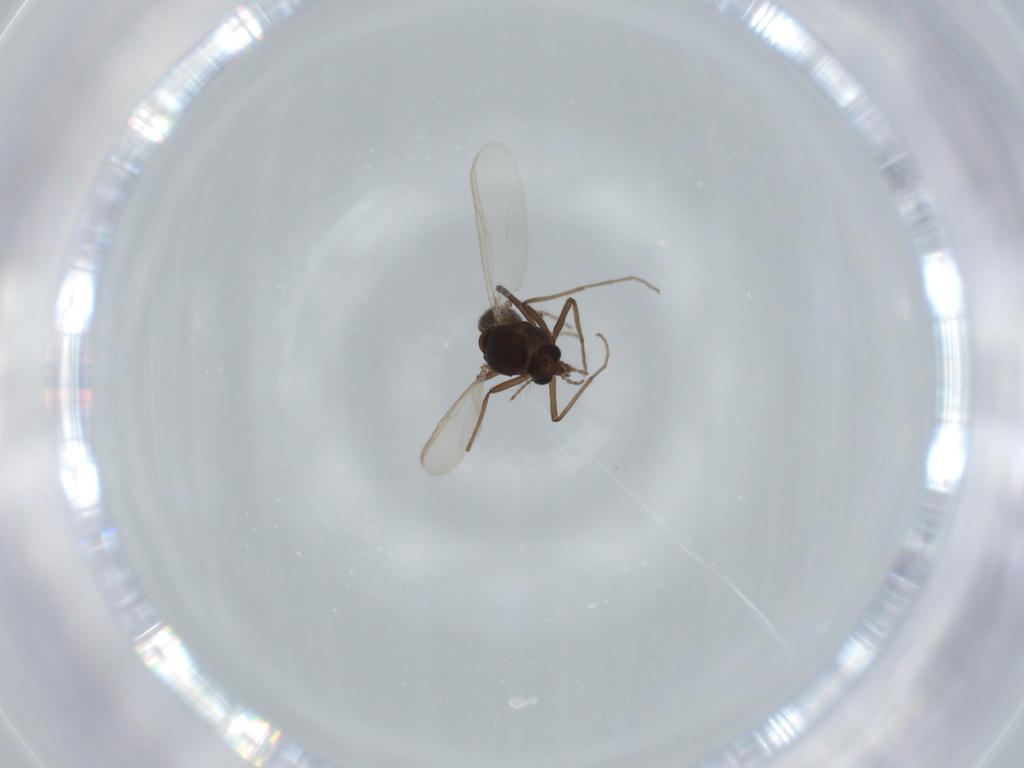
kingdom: Animalia
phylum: Arthropoda
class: Insecta
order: Diptera
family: Chironomidae
